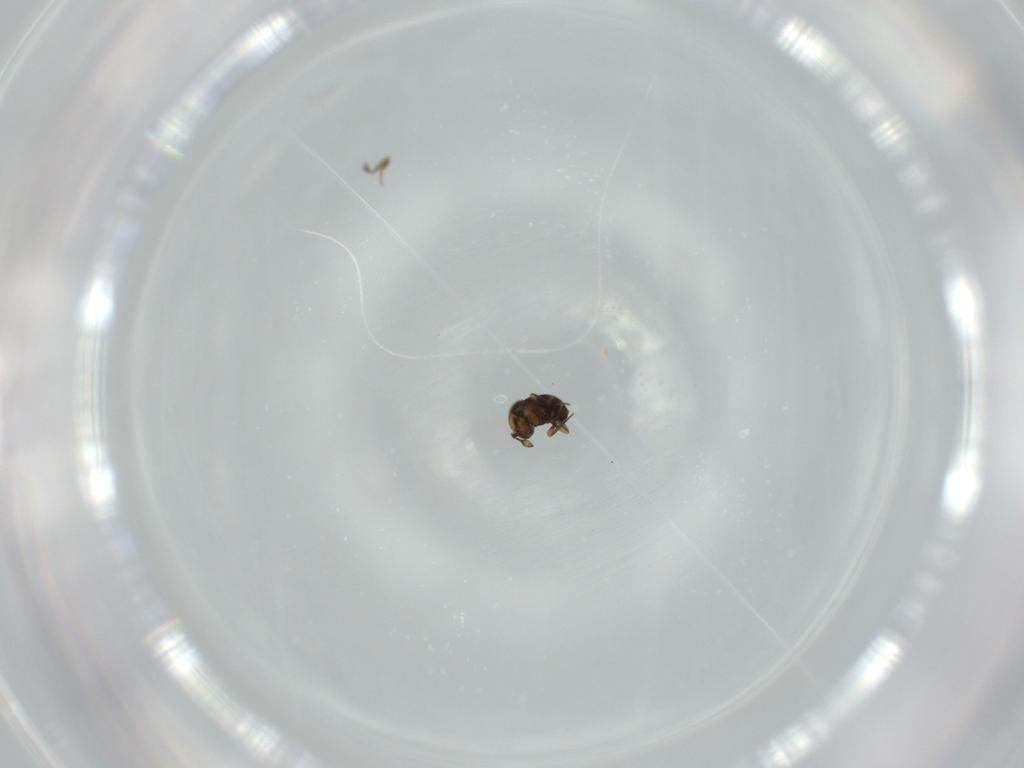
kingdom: Animalia
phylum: Arthropoda
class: Insecta
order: Hymenoptera
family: Scelionidae
